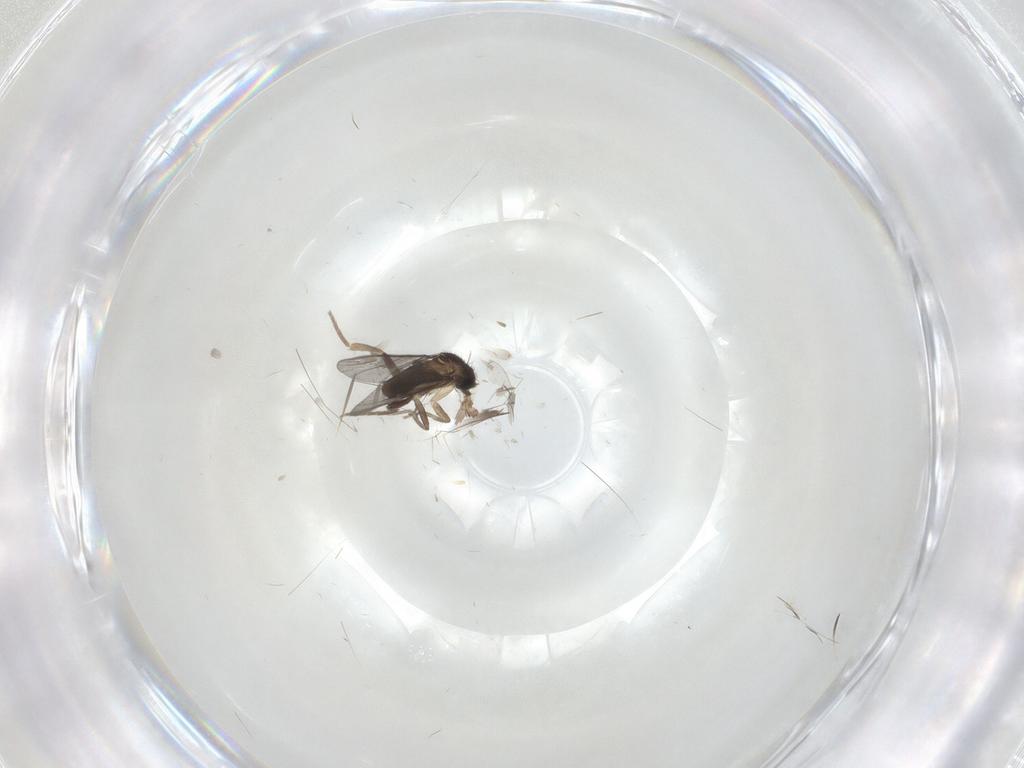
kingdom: Animalia
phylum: Arthropoda
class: Insecta
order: Diptera
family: Cecidomyiidae
